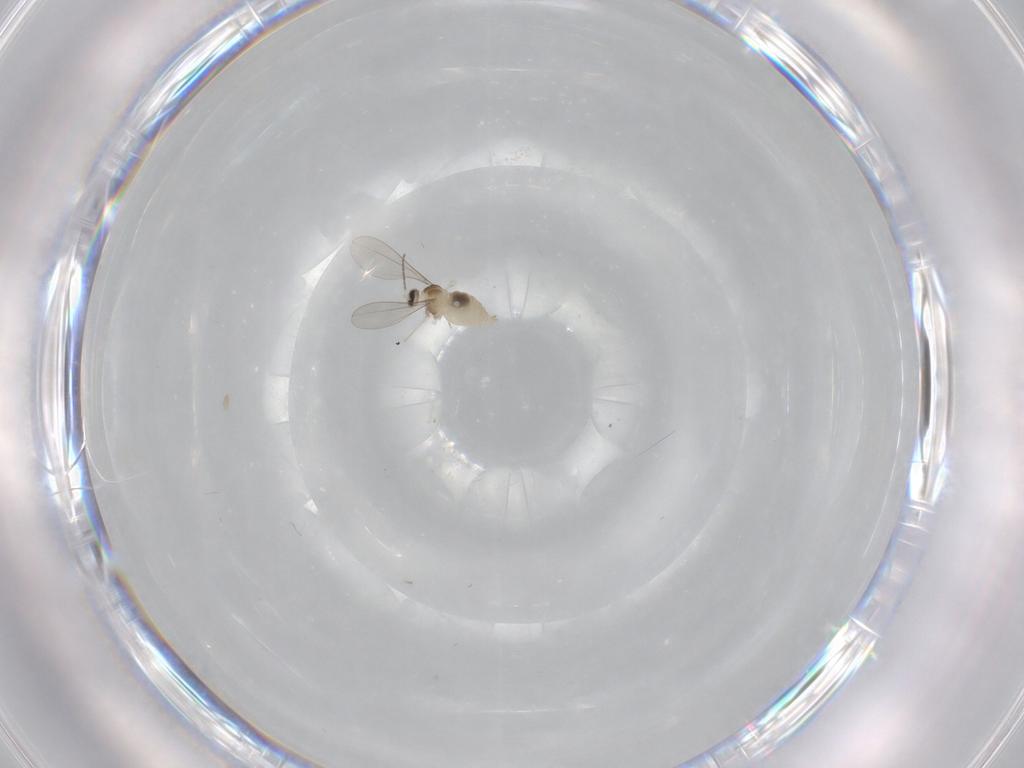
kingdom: Animalia
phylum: Arthropoda
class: Insecta
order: Diptera
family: Cecidomyiidae
